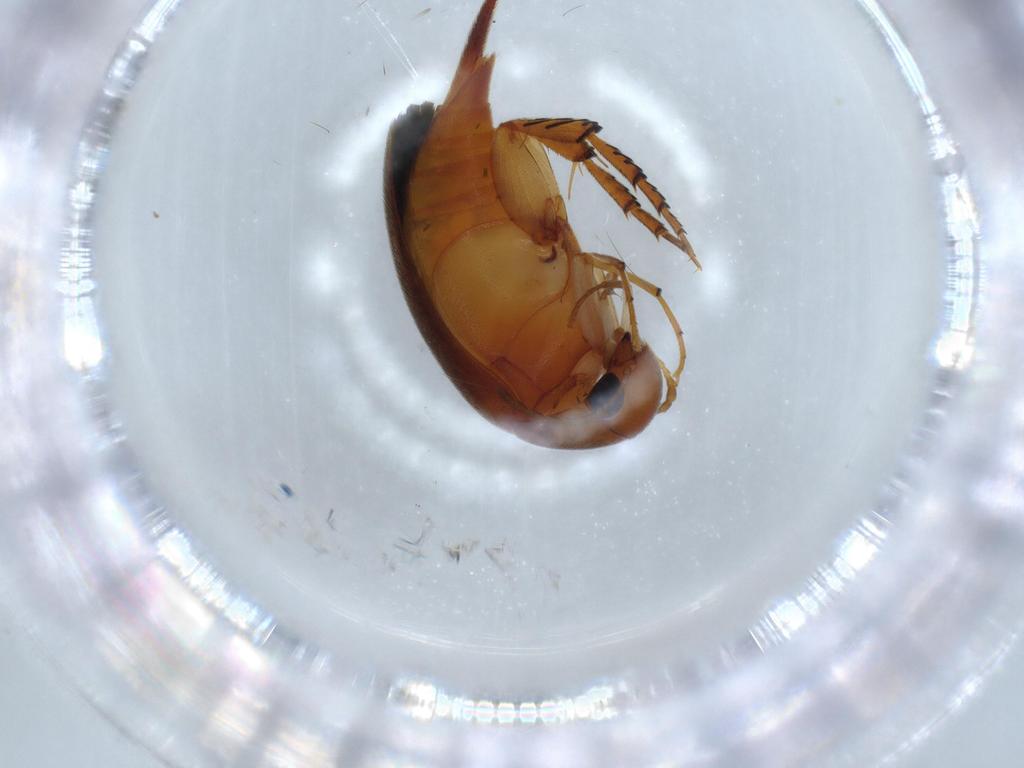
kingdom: Animalia
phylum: Arthropoda
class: Insecta
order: Coleoptera
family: Mordellidae
